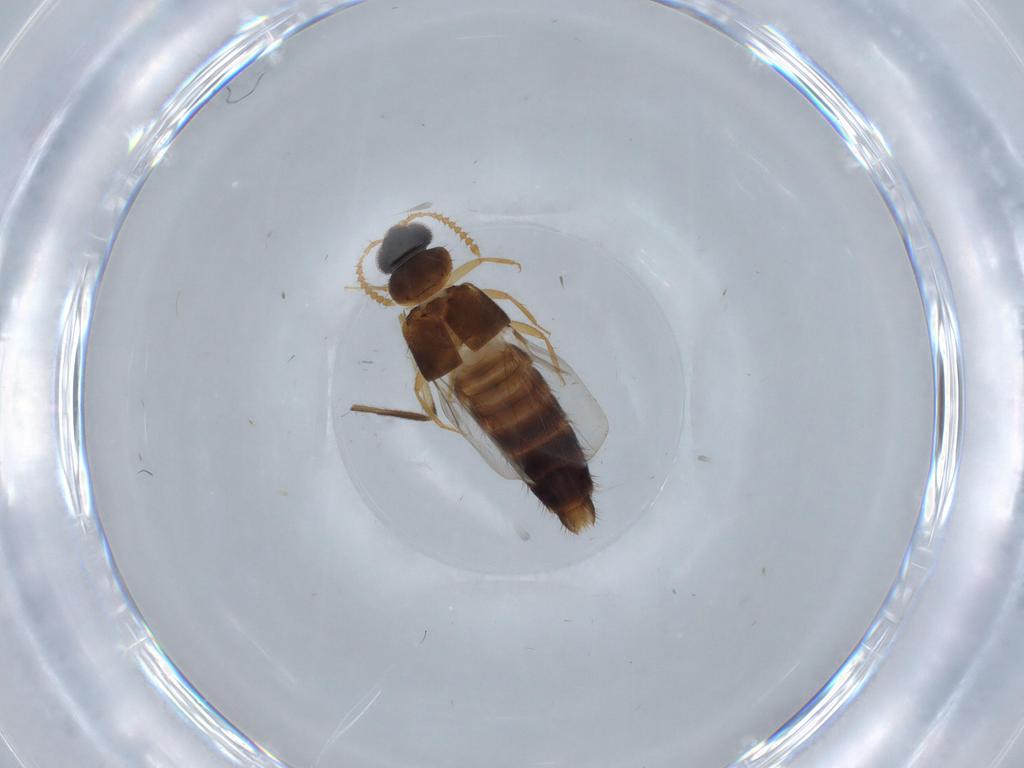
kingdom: Animalia
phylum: Arthropoda
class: Insecta
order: Coleoptera
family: Staphylinidae
